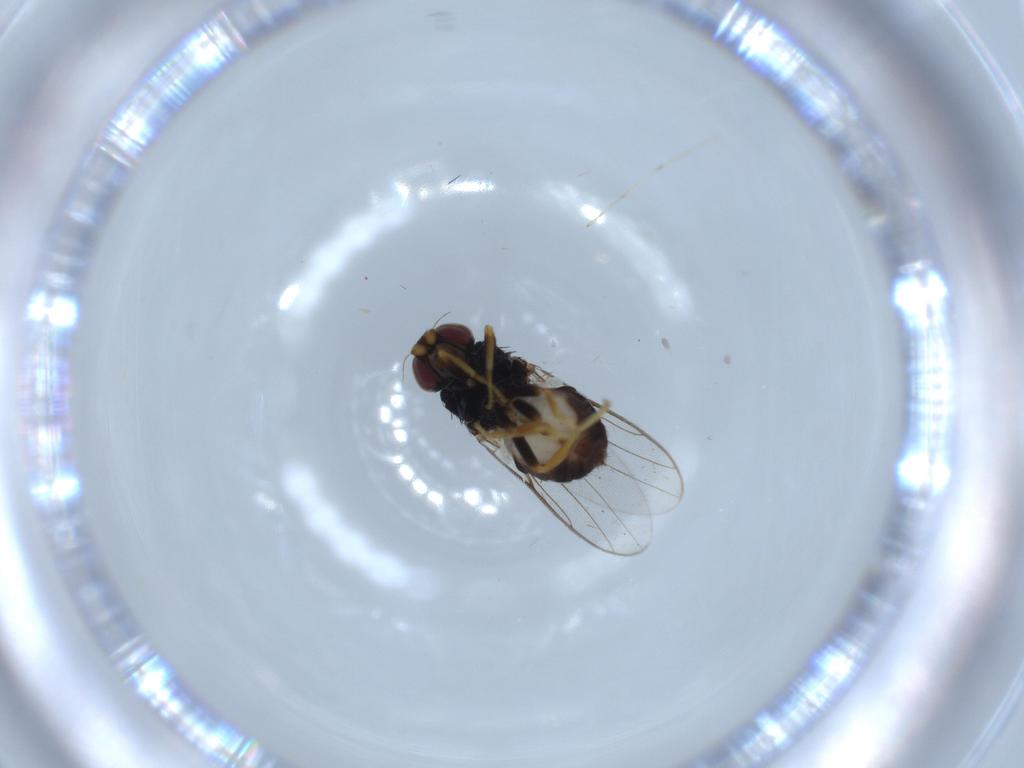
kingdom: Animalia
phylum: Arthropoda
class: Insecta
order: Diptera
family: Chloropidae
